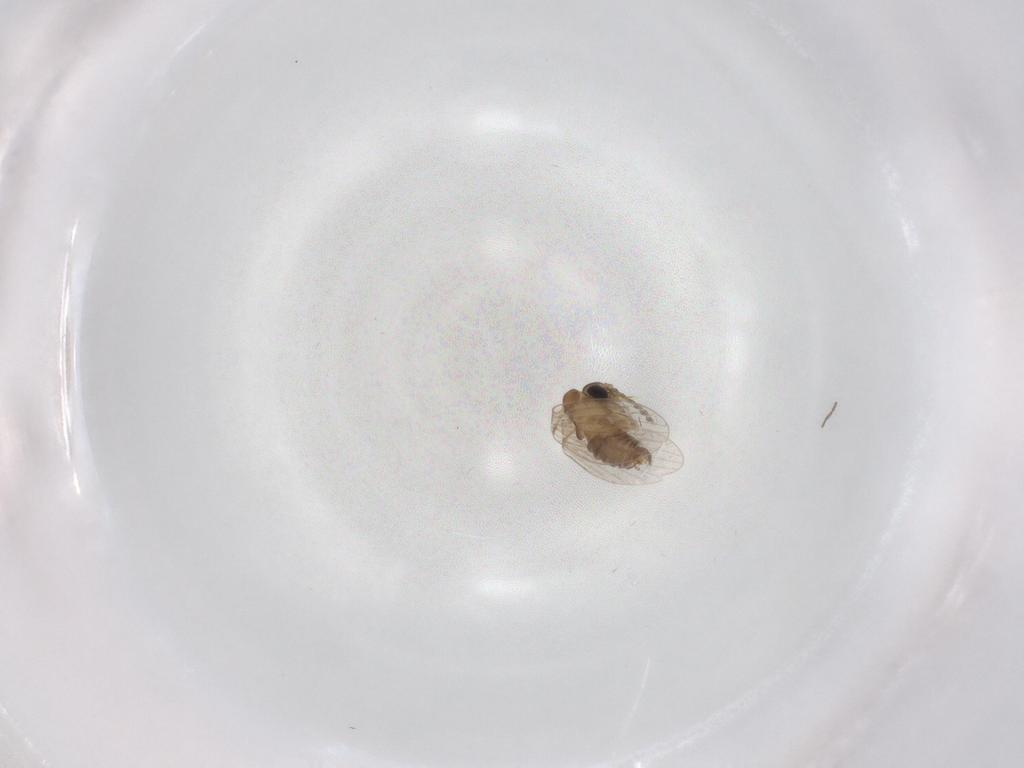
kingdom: Animalia
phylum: Arthropoda
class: Insecta
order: Diptera
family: Cecidomyiidae
